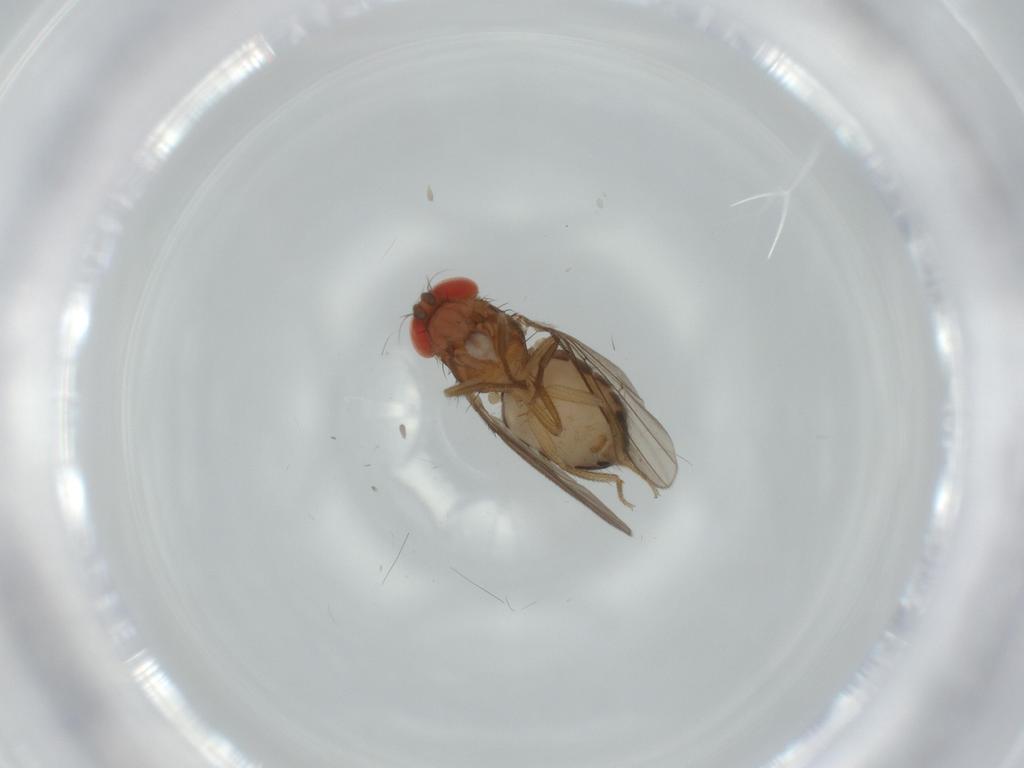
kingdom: Animalia
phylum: Arthropoda
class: Insecta
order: Diptera
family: Drosophilidae
